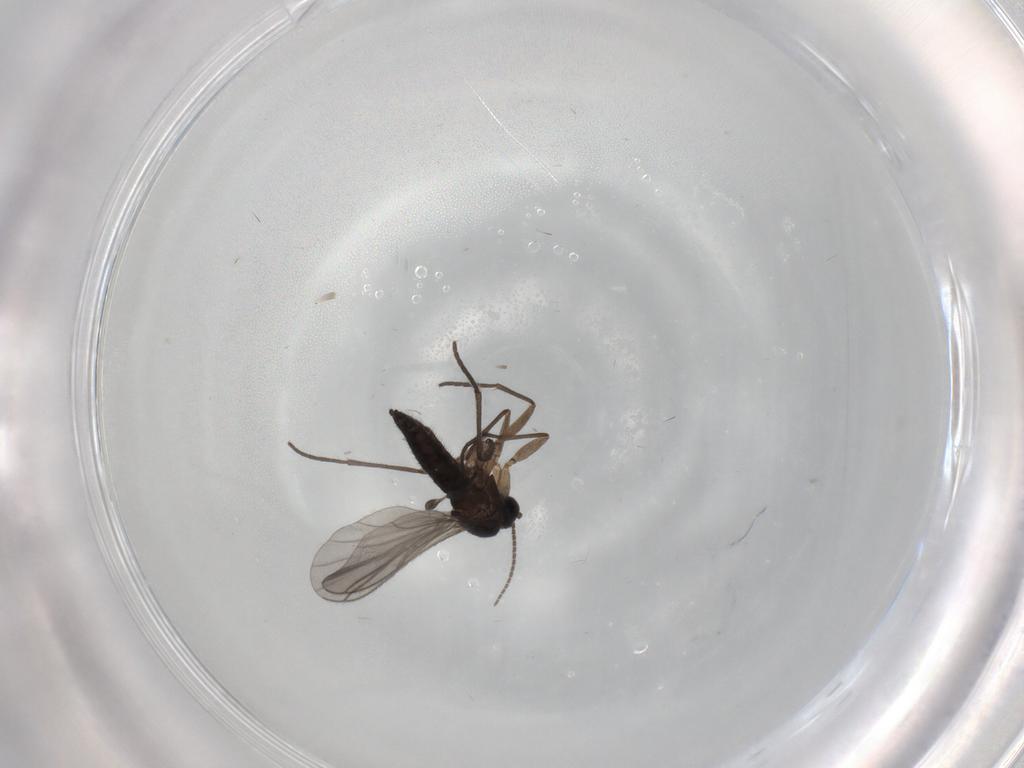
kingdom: Animalia
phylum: Arthropoda
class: Insecta
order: Diptera
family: Sciaridae
